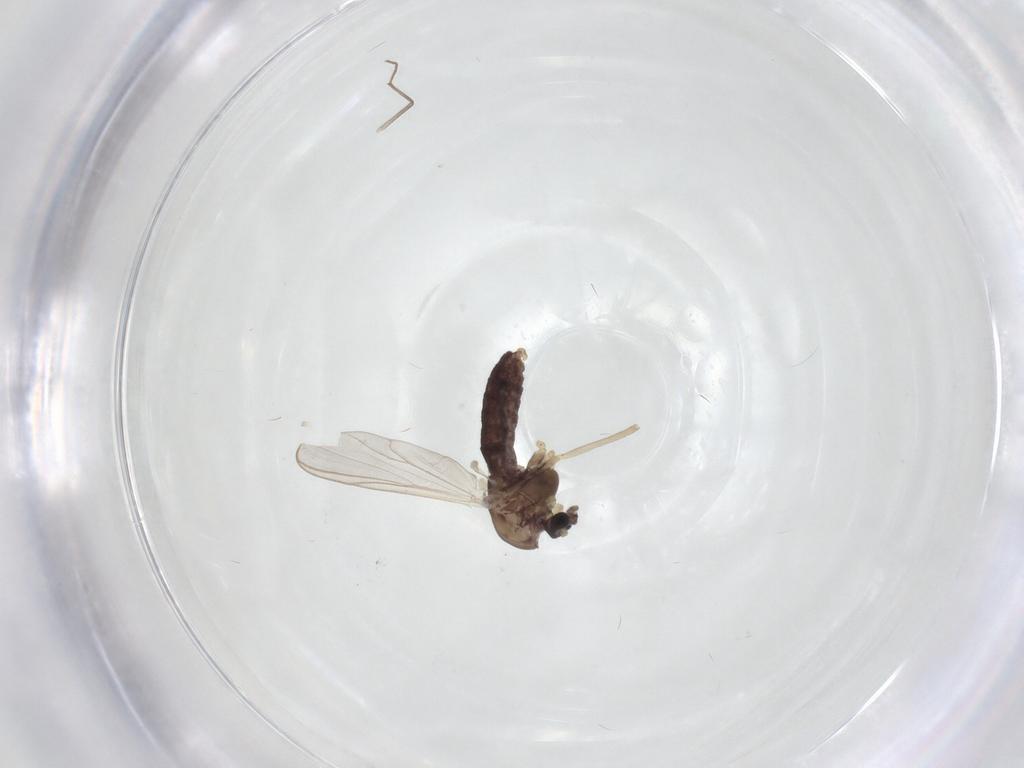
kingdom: Animalia
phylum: Arthropoda
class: Insecta
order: Diptera
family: Chironomidae
